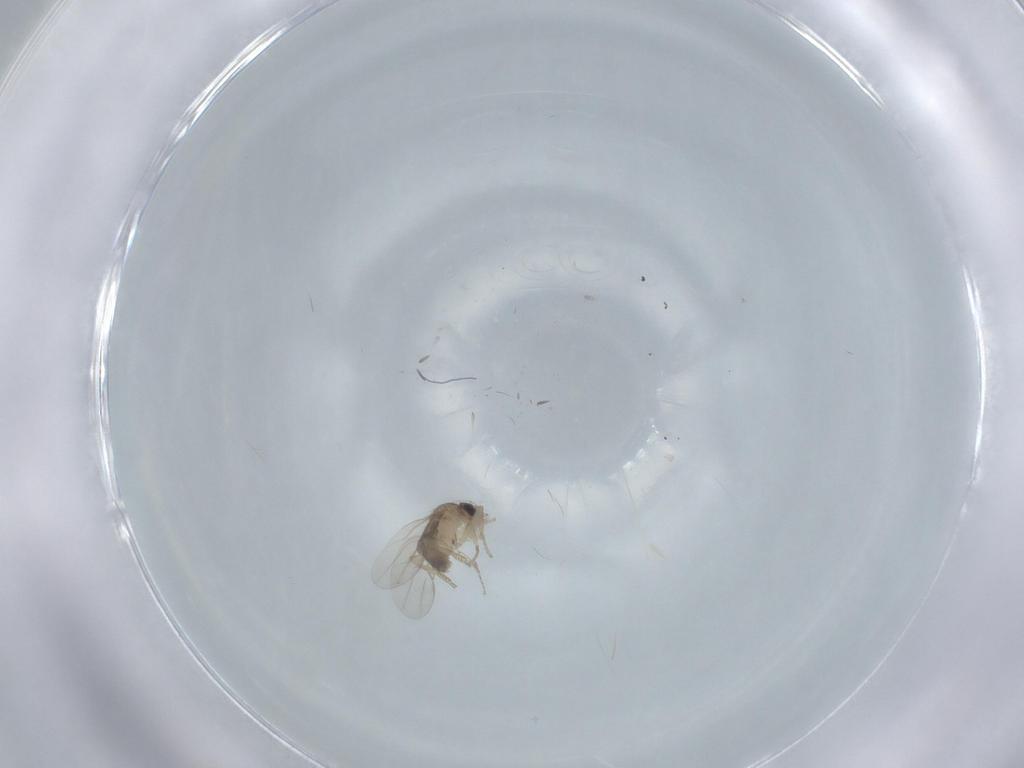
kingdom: Animalia
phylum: Arthropoda
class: Insecta
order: Diptera
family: Phoridae
